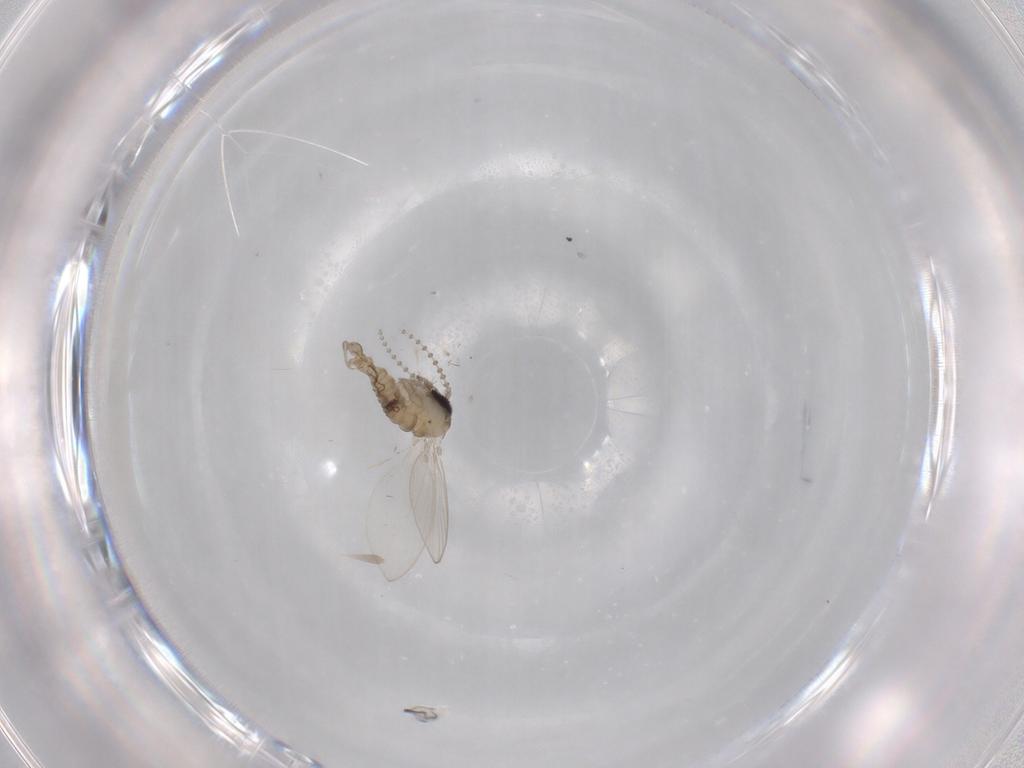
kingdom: Animalia
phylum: Arthropoda
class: Insecta
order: Diptera
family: Psychodidae
